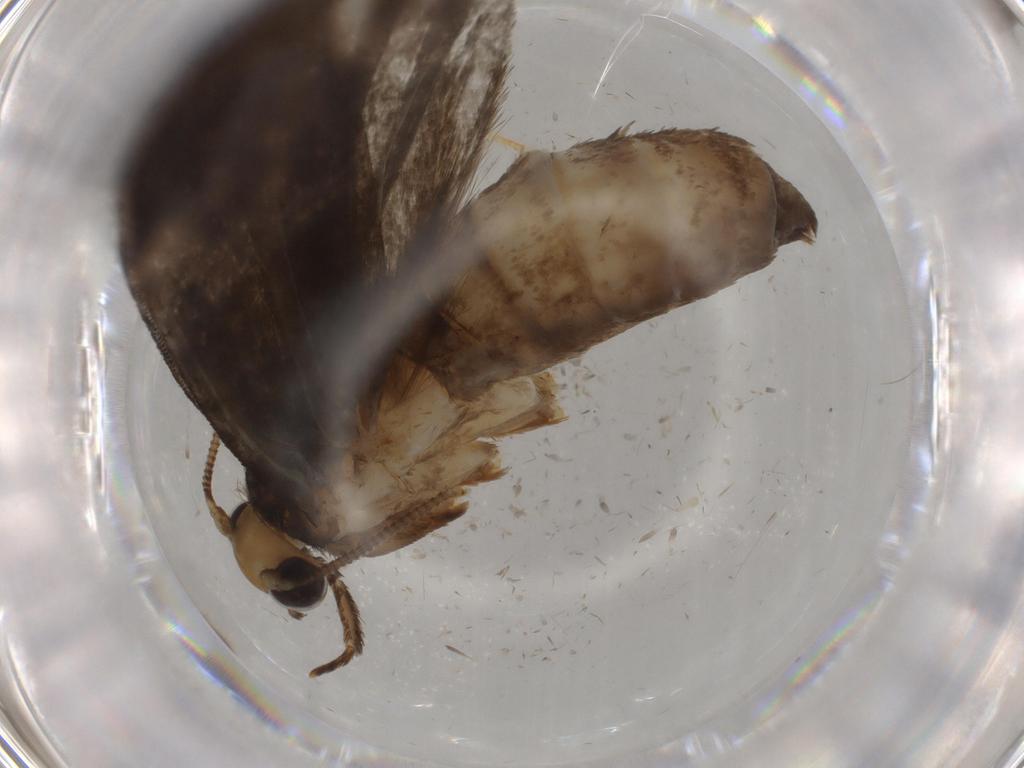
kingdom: Animalia
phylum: Arthropoda
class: Insecta
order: Lepidoptera
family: Tineidae
